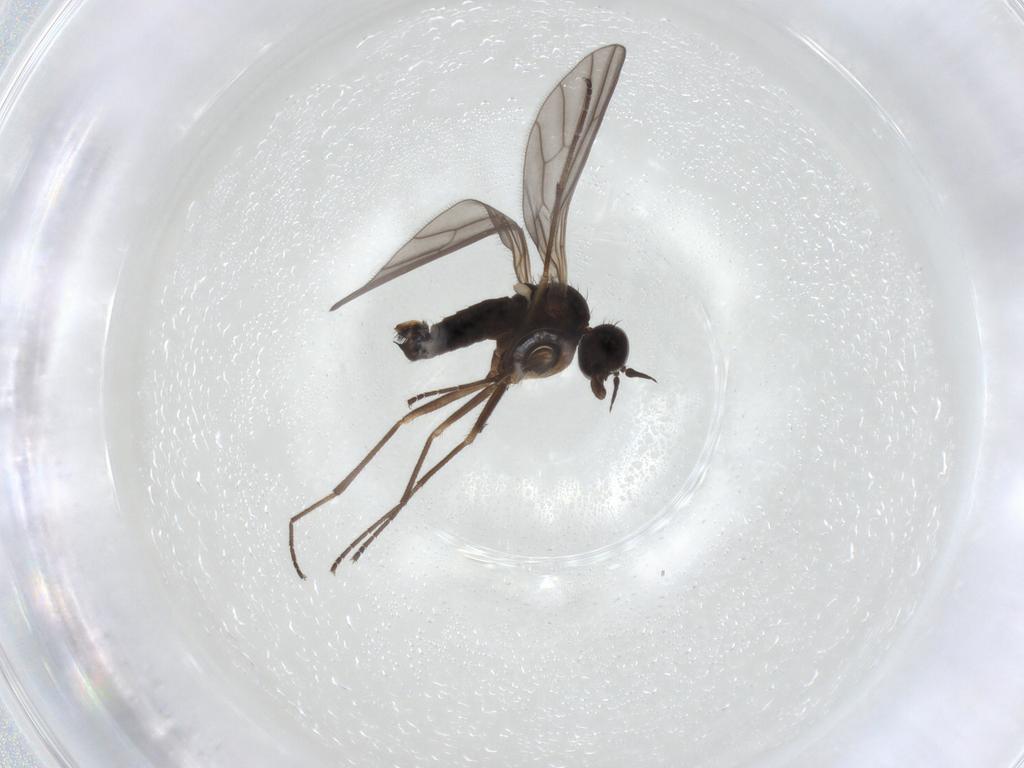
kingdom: Animalia
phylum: Arthropoda
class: Insecta
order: Diptera
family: Empididae
